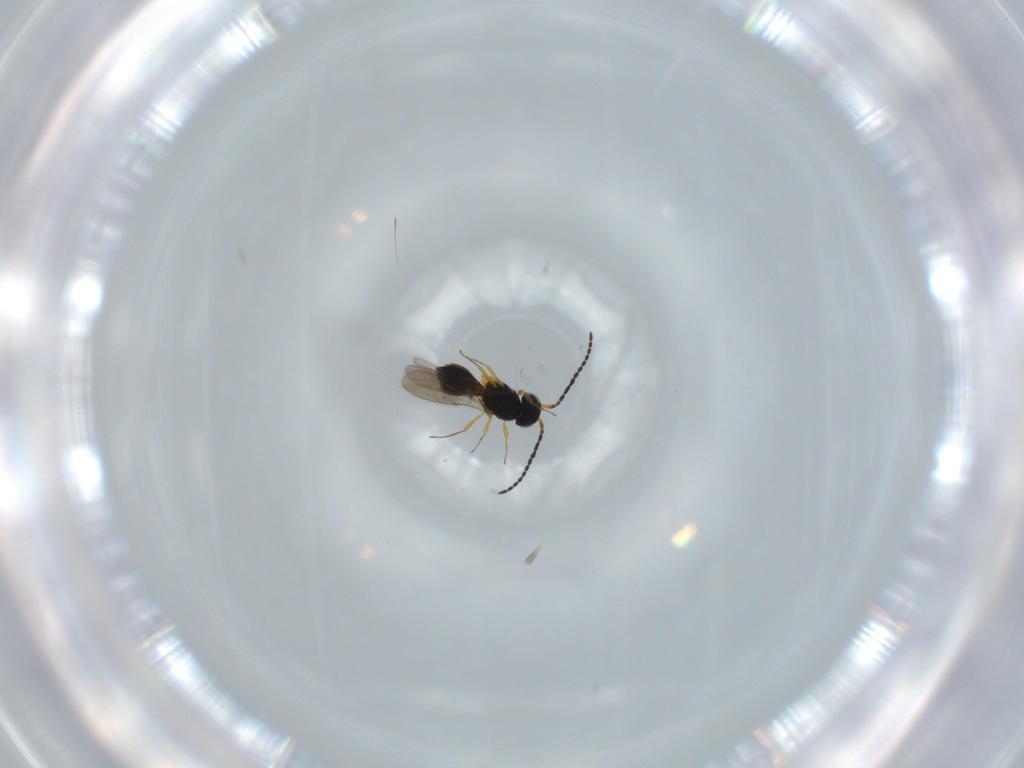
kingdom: Animalia
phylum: Arthropoda
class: Insecta
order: Hymenoptera
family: Scelionidae
